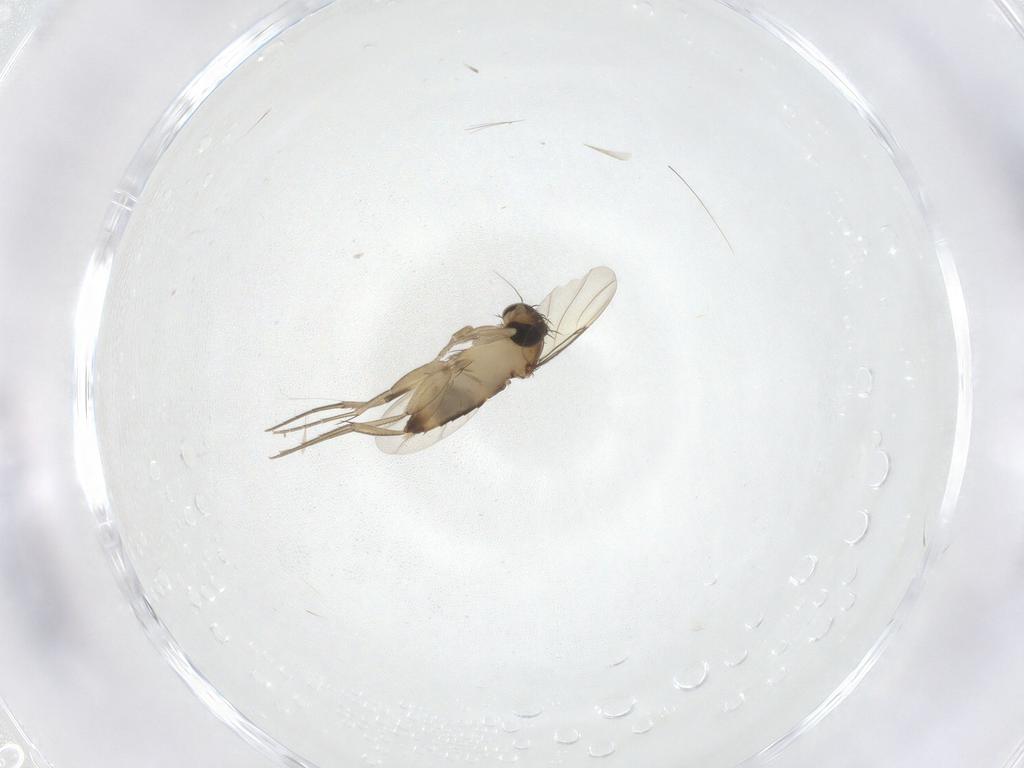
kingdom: Animalia
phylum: Arthropoda
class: Insecta
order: Diptera
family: Phoridae
